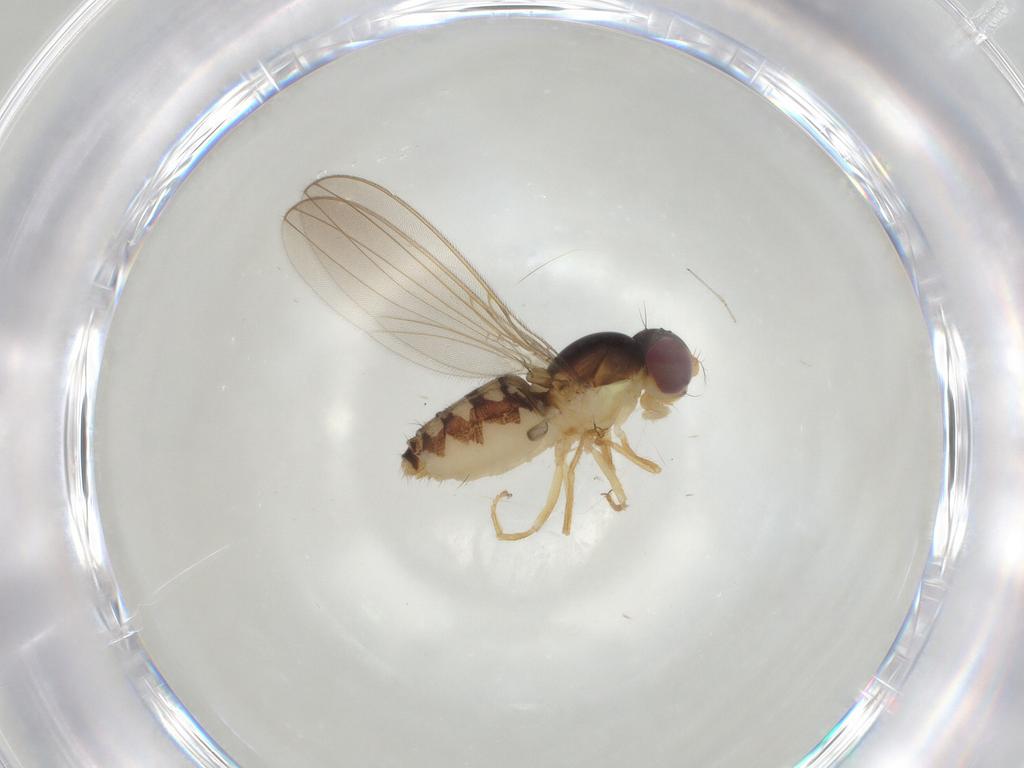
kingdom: Animalia
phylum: Arthropoda
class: Insecta
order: Diptera
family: Asteiidae
